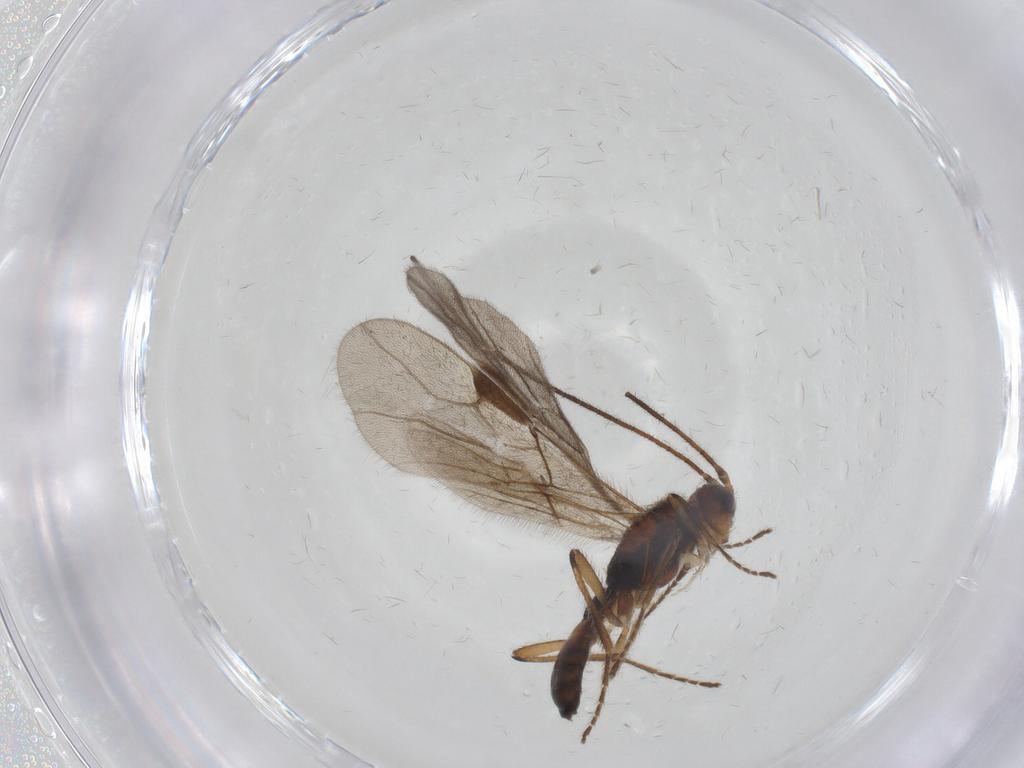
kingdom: Animalia
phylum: Arthropoda
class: Insecta
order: Hymenoptera
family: Braconidae
